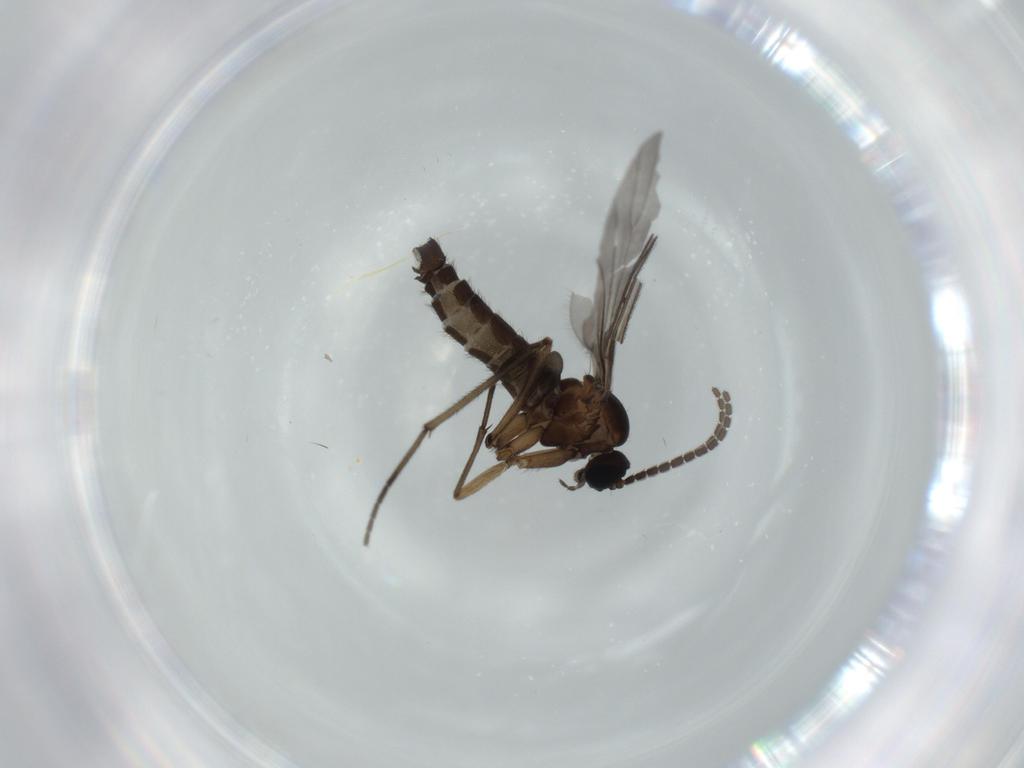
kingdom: Animalia
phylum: Arthropoda
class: Insecta
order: Diptera
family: Sciaridae
